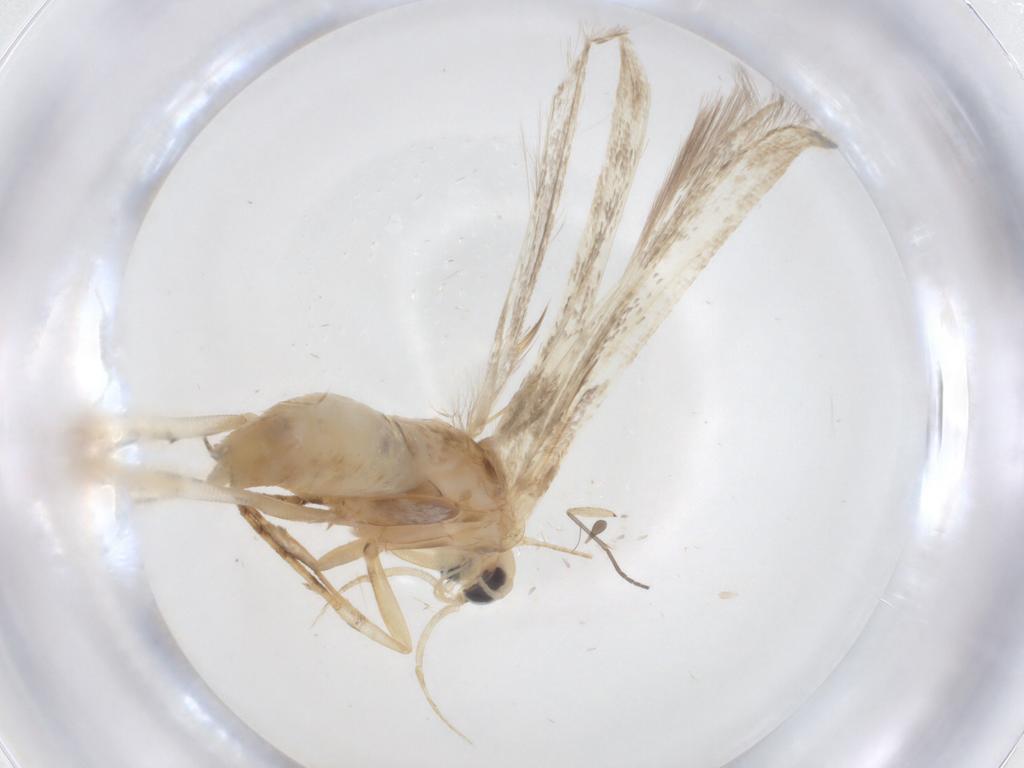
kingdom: Animalia
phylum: Arthropoda
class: Insecta
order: Lepidoptera
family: Gelechiidae
